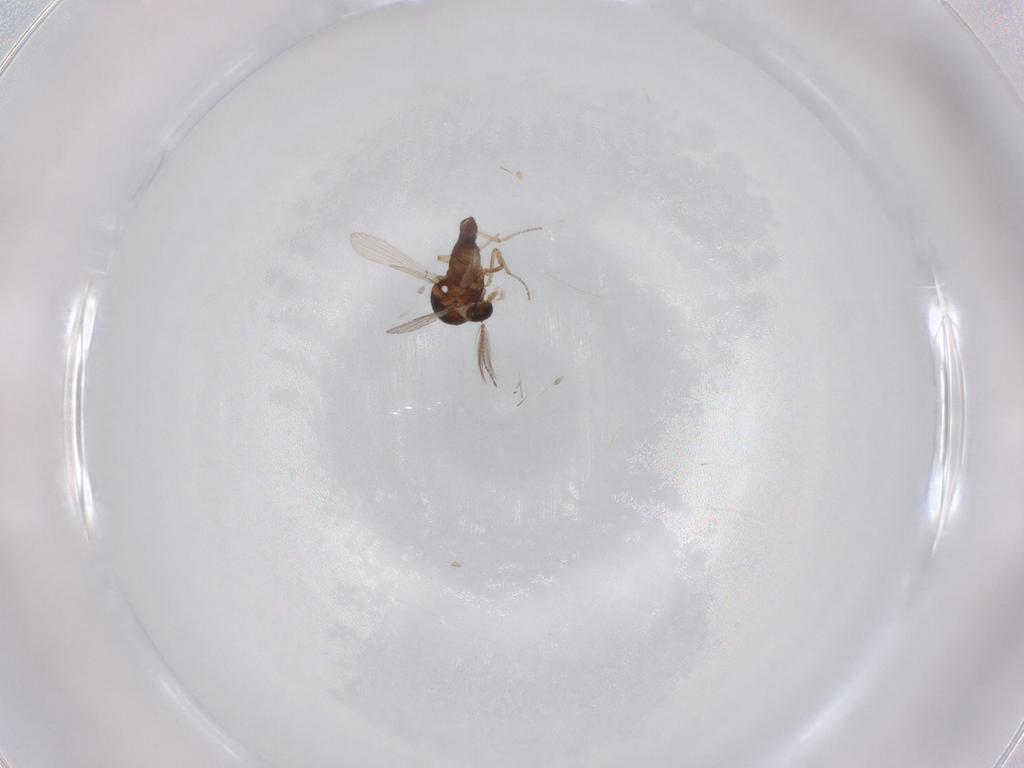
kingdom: Animalia
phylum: Arthropoda
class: Insecta
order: Diptera
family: Ceratopogonidae
